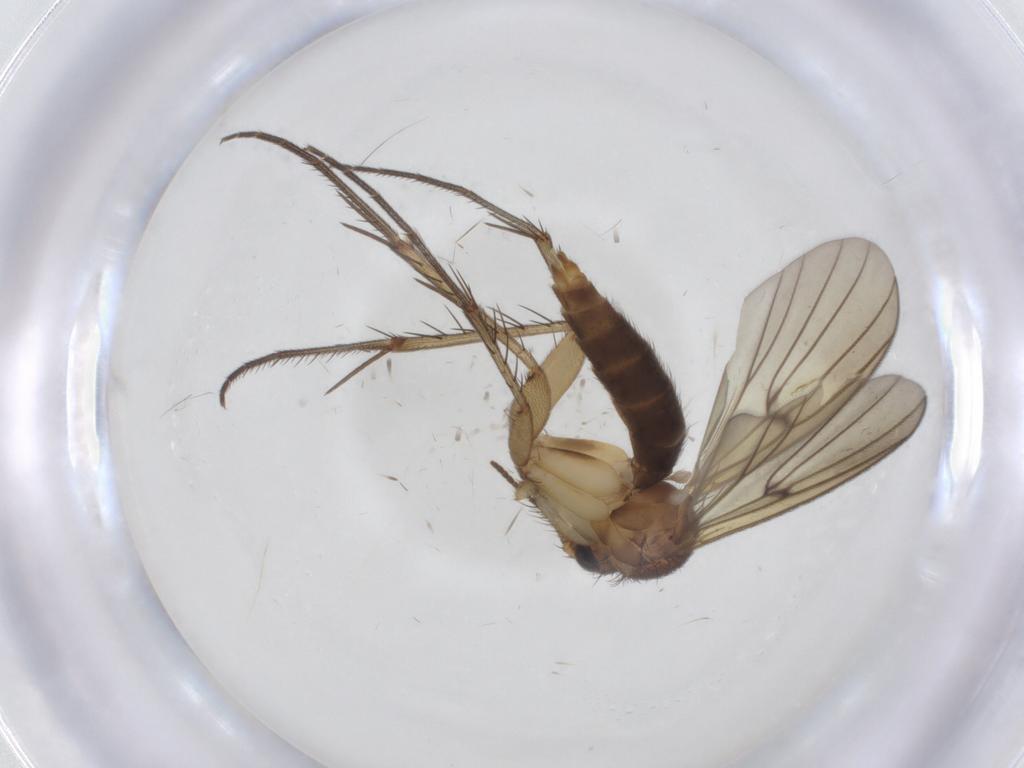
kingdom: Animalia
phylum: Arthropoda
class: Insecta
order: Diptera
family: Mycetophilidae
